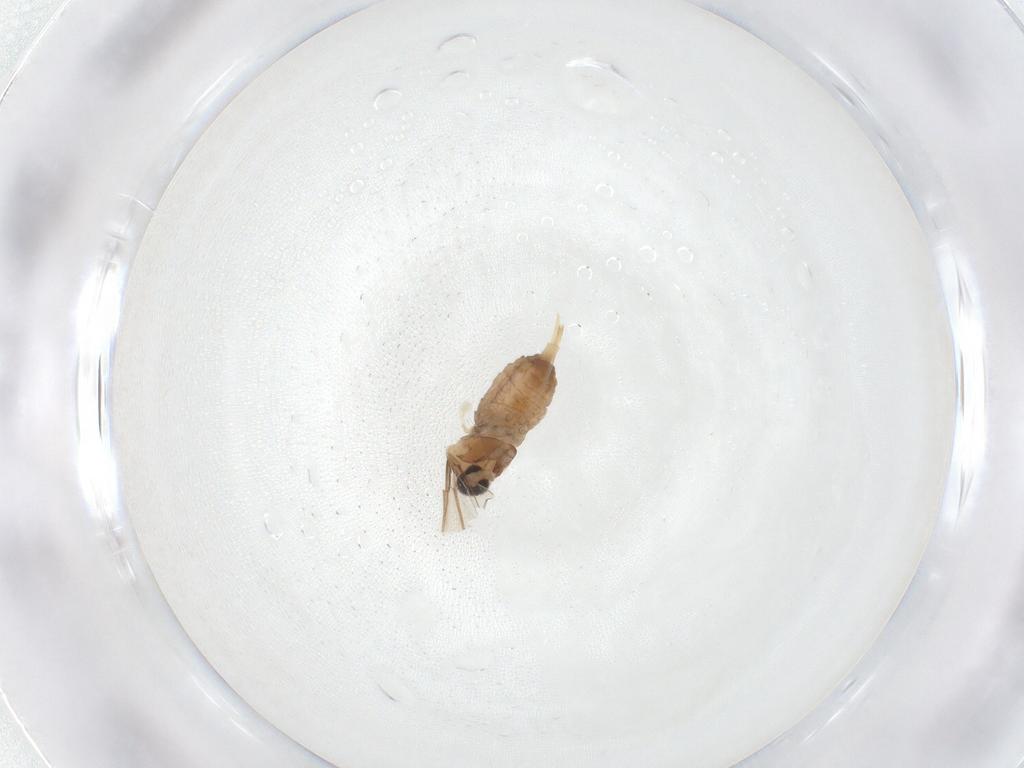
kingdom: Animalia
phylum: Arthropoda
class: Insecta
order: Diptera
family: Cecidomyiidae
